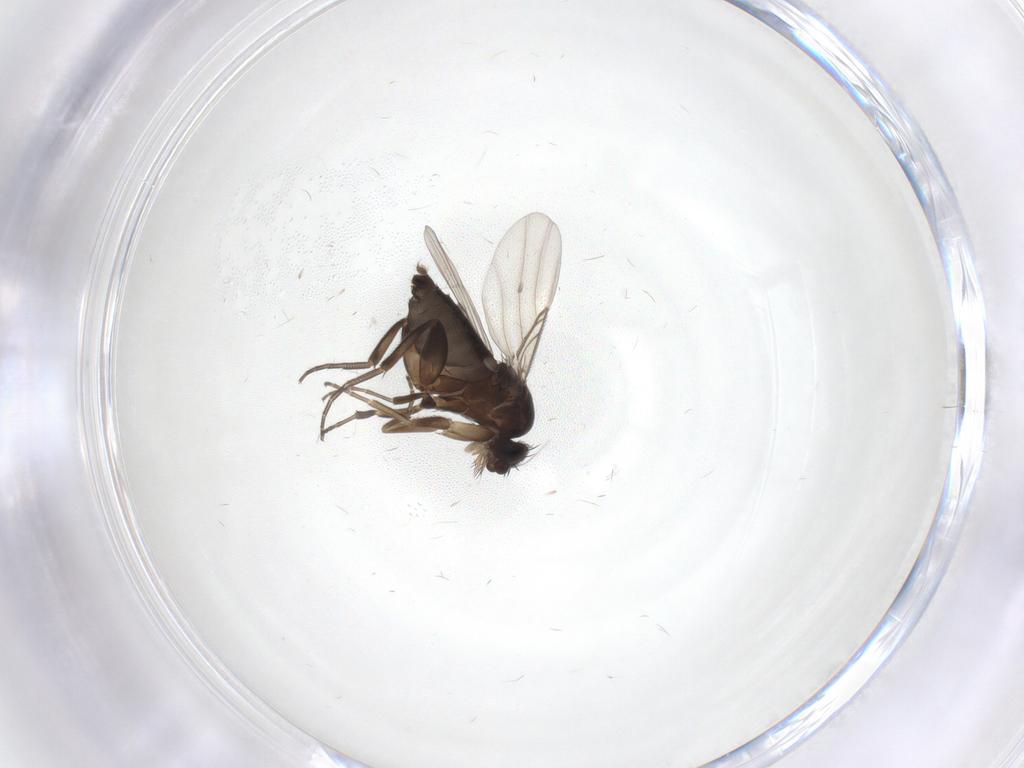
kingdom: Animalia
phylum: Arthropoda
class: Insecta
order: Diptera
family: Phoridae
